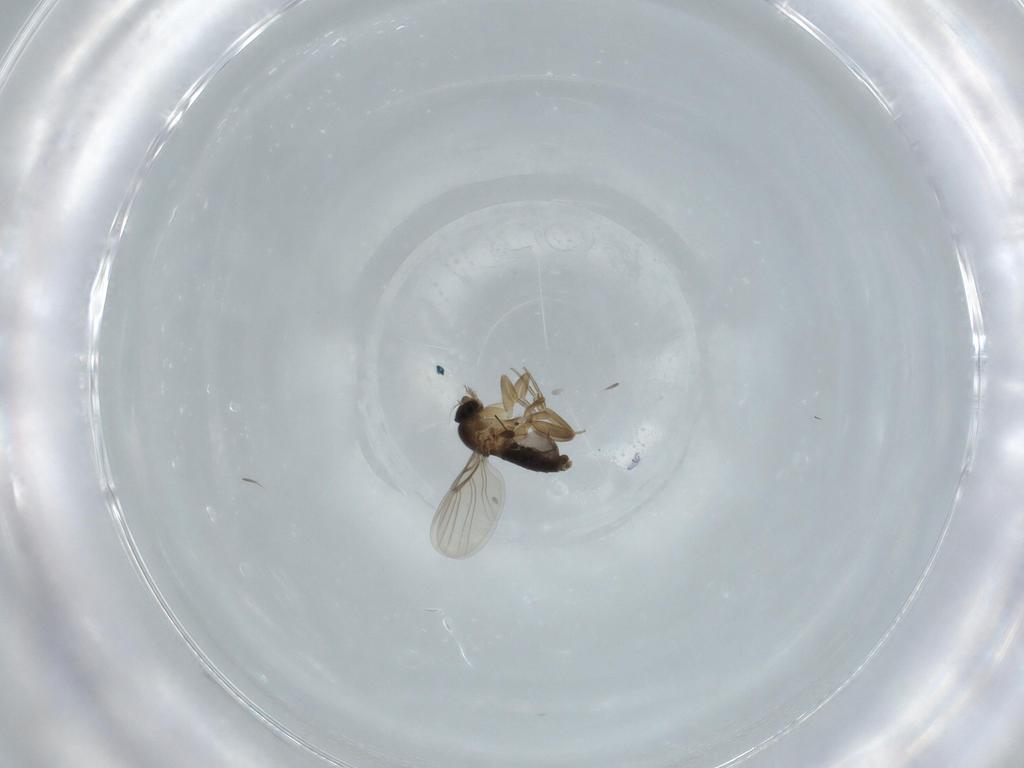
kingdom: Animalia
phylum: Arthropoda
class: Insecta
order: Diptera
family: Phoridae
